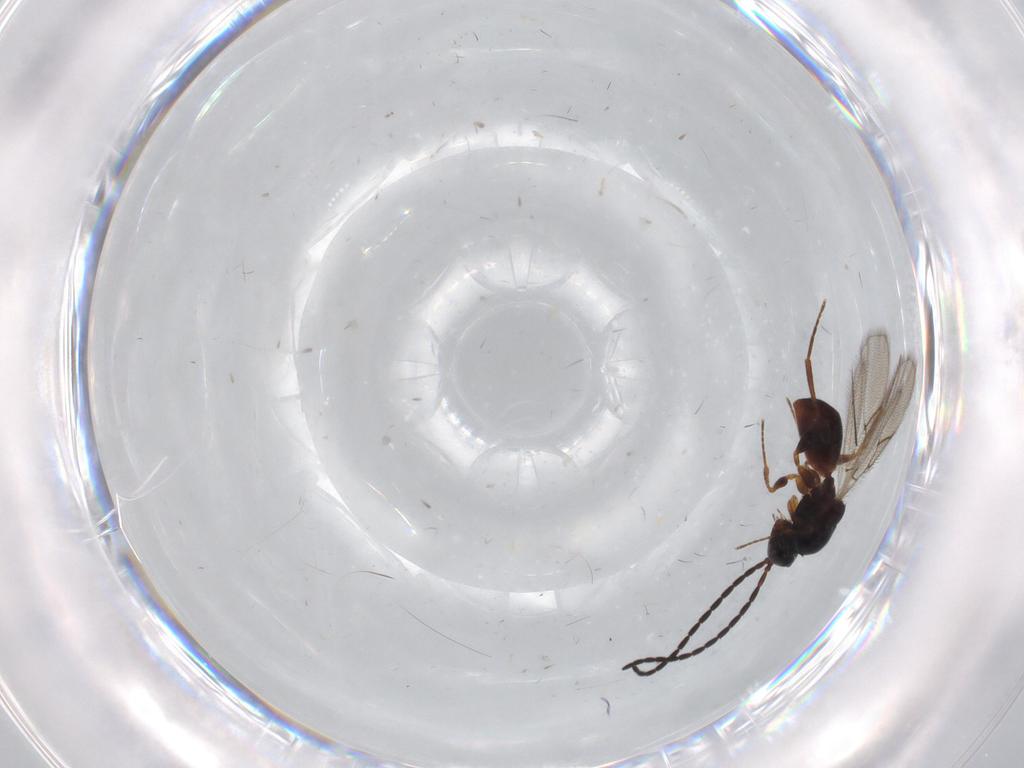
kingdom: Animalia
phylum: Arthropoda
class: Insecta
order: Hymenoptera
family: Figitidae
